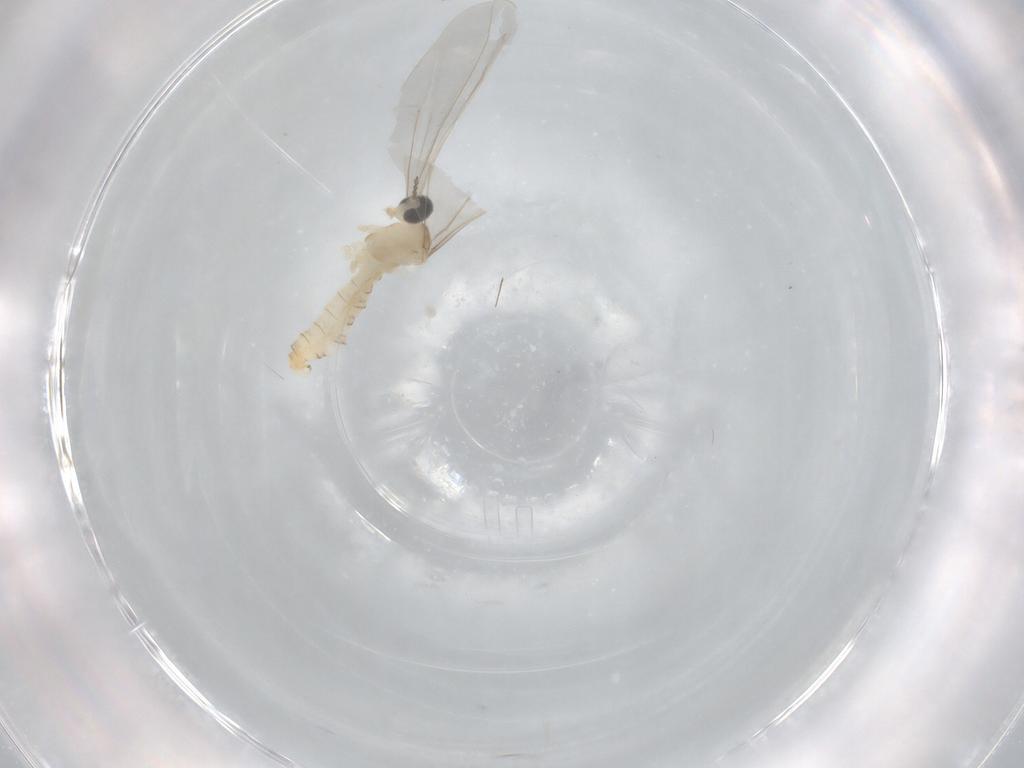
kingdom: Animalia
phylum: Arthropoda
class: Insecta
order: Diptera
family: Cecidomyiidae
